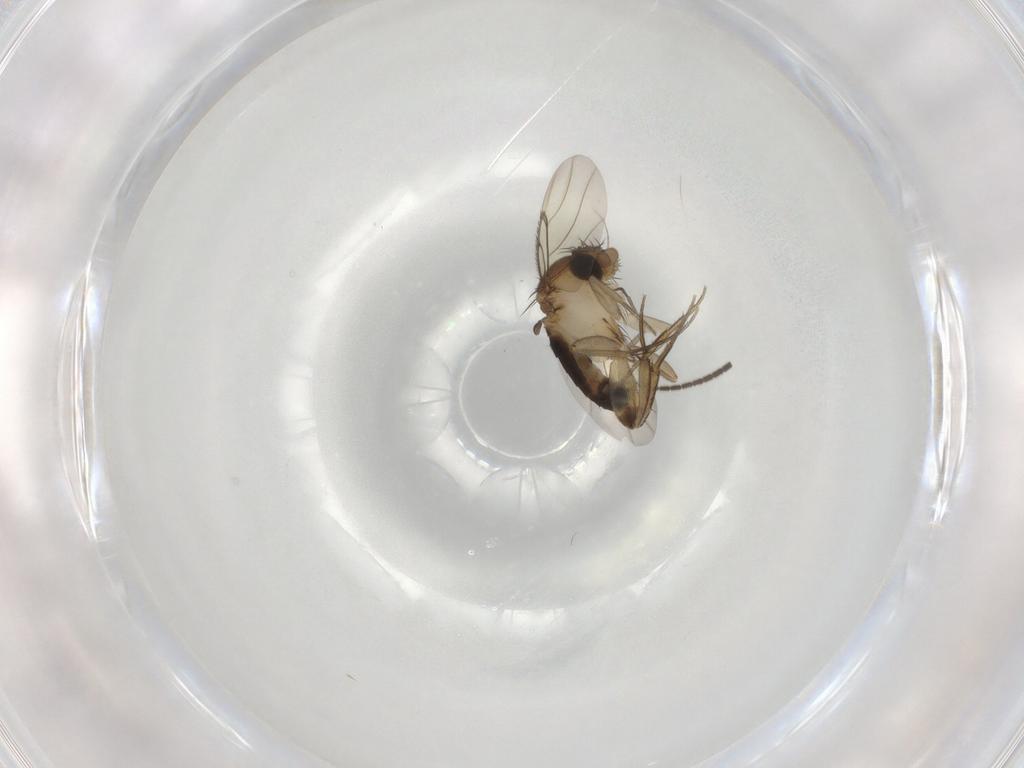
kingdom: Animalia
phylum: Arthropoda
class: Insecta
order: Diptera
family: Phoridae
